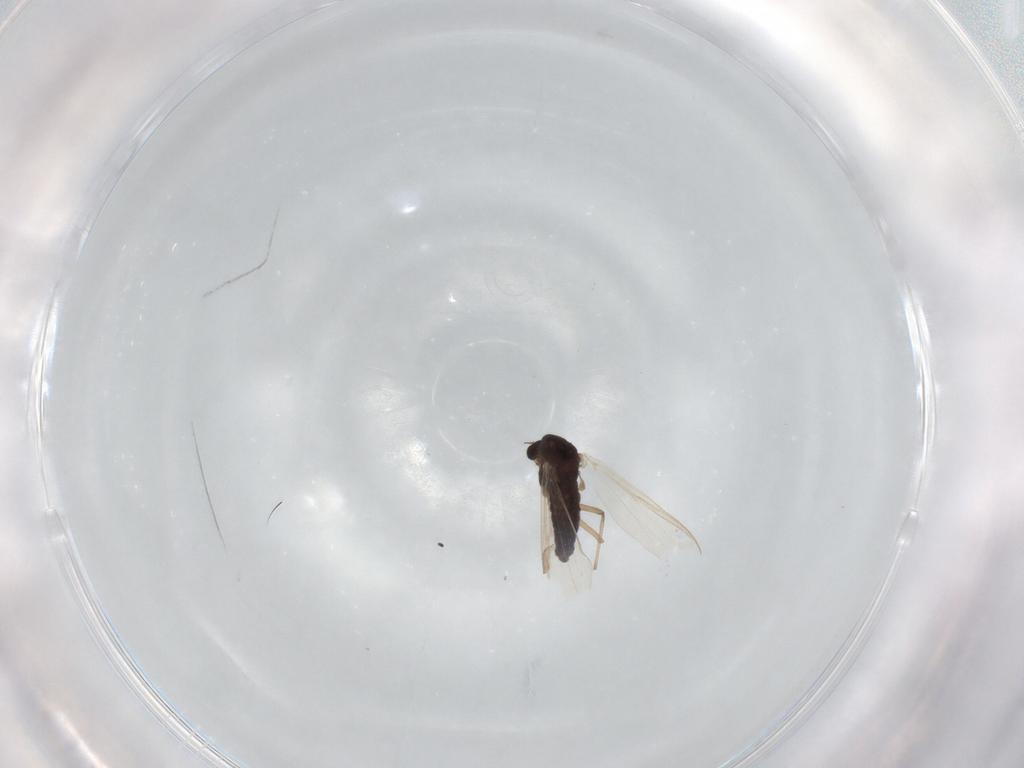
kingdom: Animalia
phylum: Arthropoda
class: Insecta
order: Diptera
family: Chironomidae
